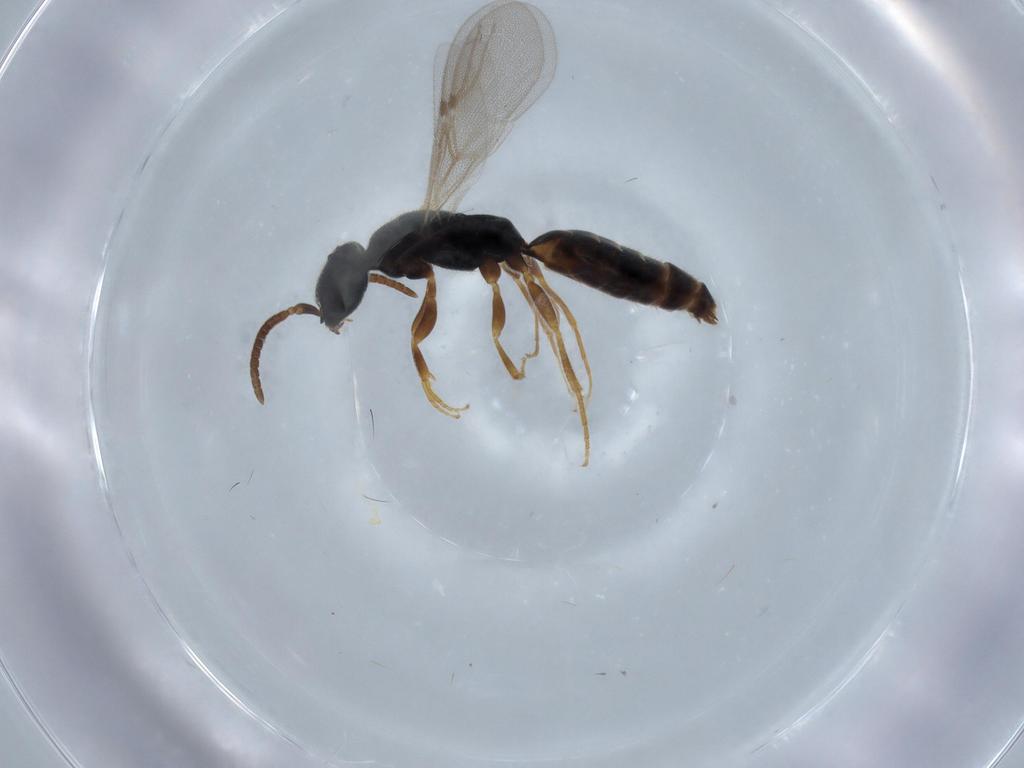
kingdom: Animalia
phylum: Arthropoda
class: Insecta
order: Hymenoptera
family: Bethylidae
